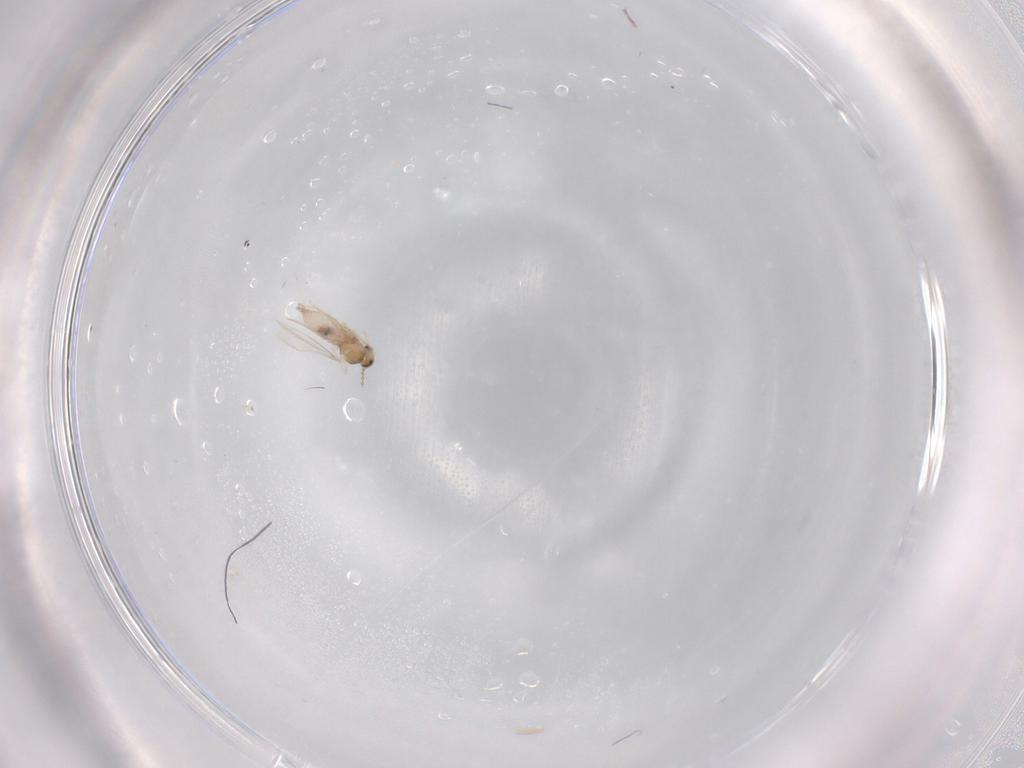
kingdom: Animalia
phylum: Arthropoda
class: Insecta
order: Diptera
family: Cecidomyiidae
